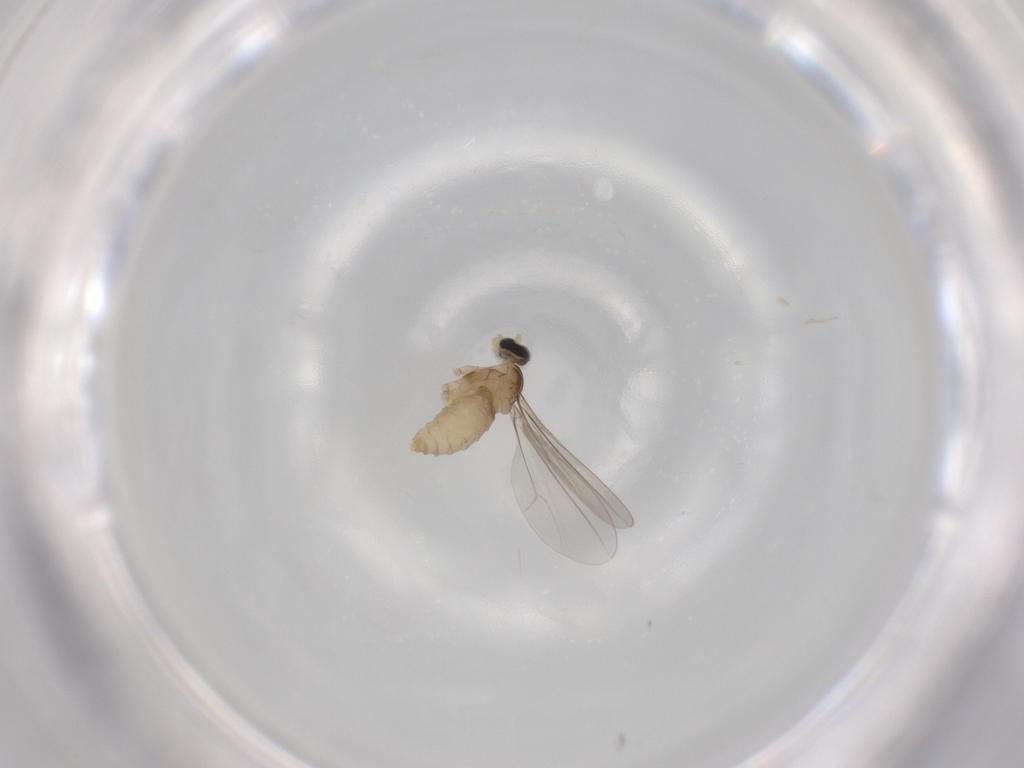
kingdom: Animalia
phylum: Arthropoda
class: Insecta
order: Diptera
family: Cecidomyiidae
